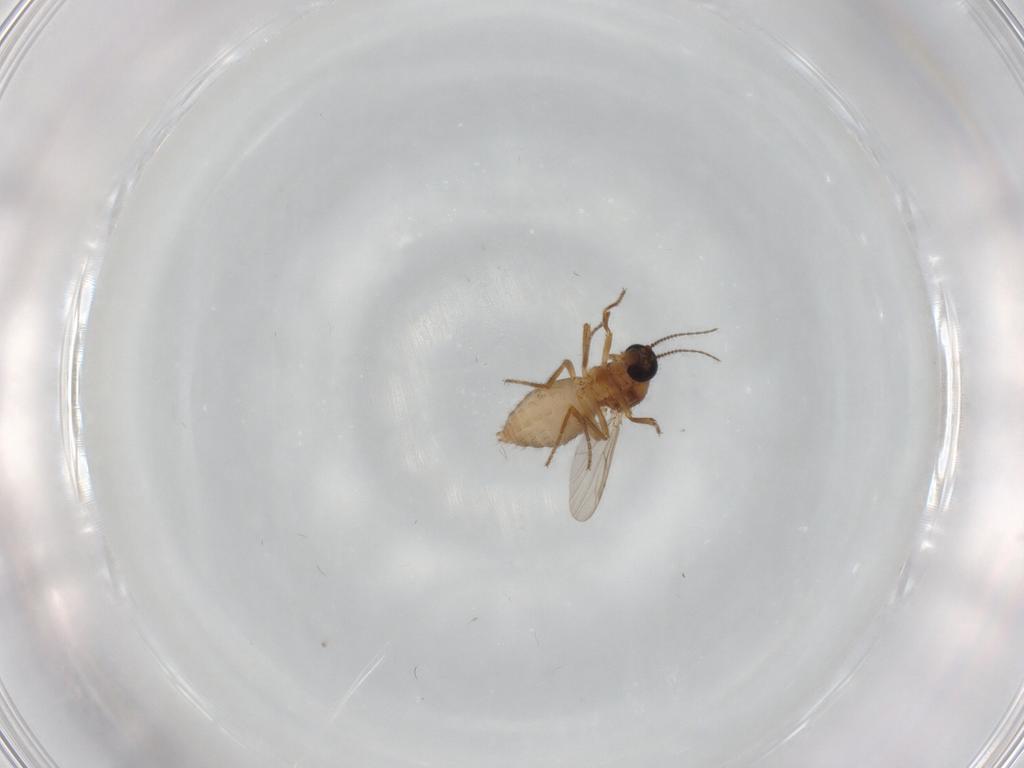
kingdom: Animalia
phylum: Arthropoda
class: Insecta
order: Diptera
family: Ceratopogonidae
